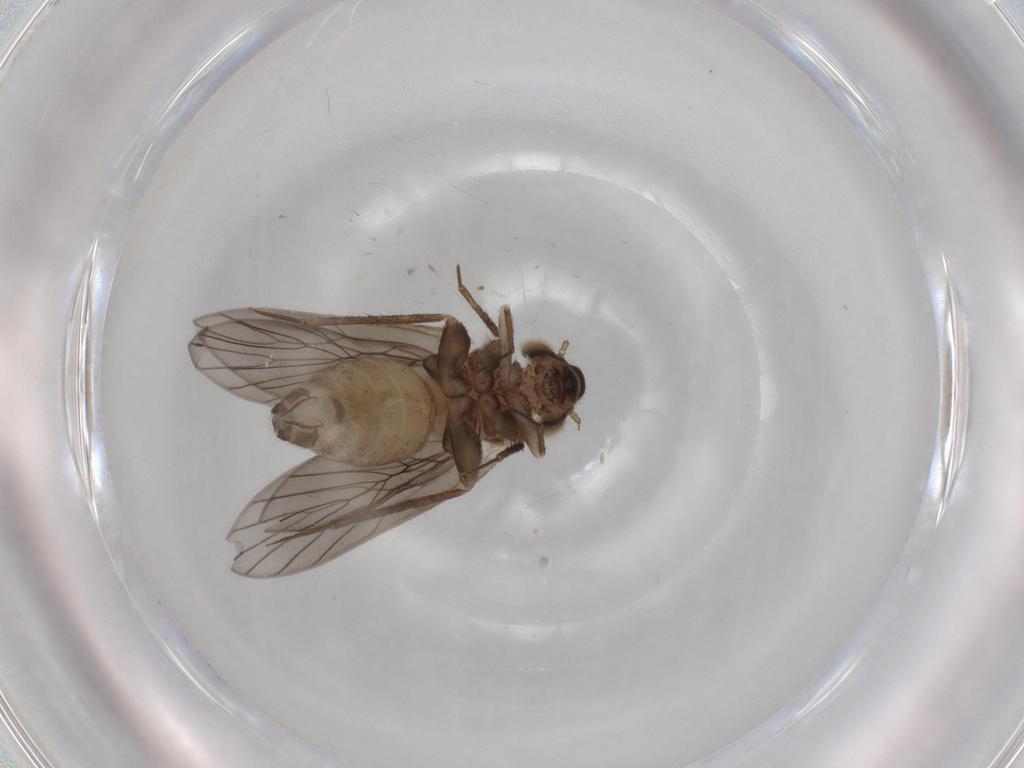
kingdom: Animalia
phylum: Arthropoda
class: Insecta
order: Psocodea
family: Lepidopsocidae
